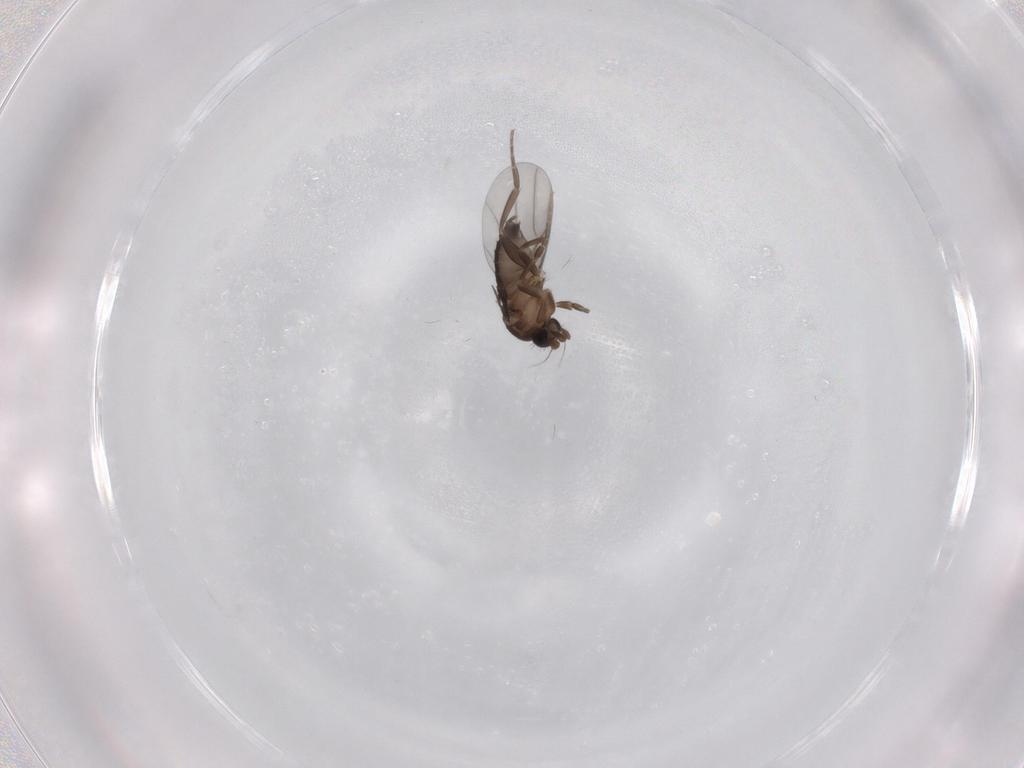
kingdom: Animalia
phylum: Arthropoda
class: Insecta
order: Diptera
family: Phoridae
